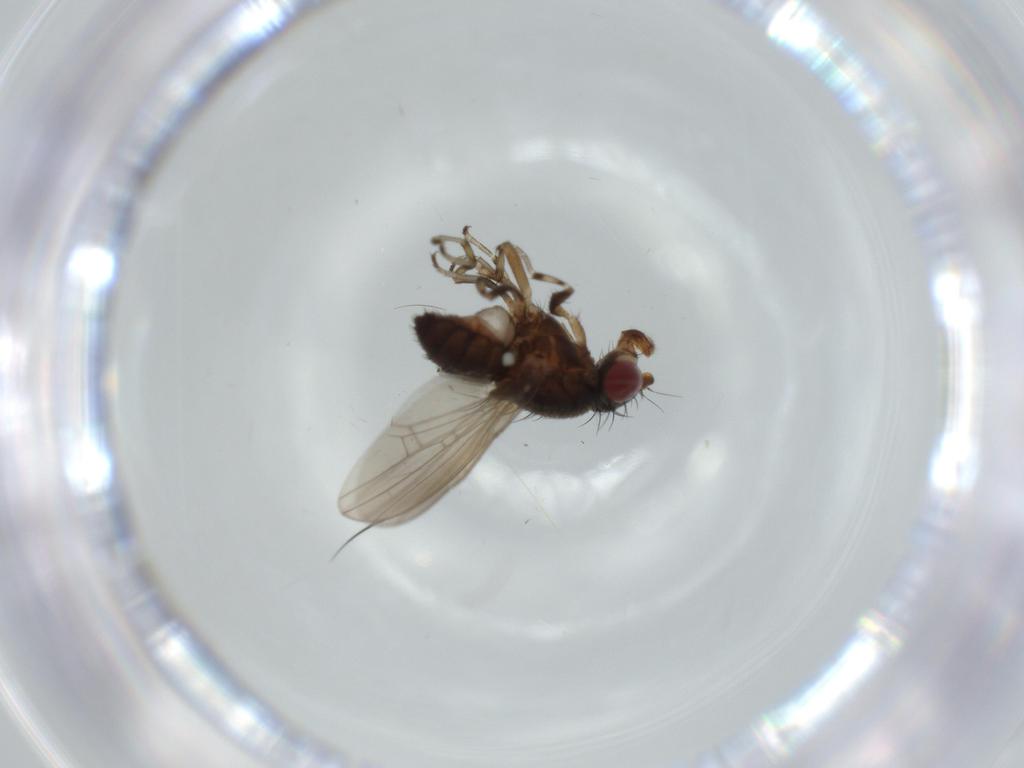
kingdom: Animalia
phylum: Arthropoda
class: Insecta
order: Diptera
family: Heleomyzidae
